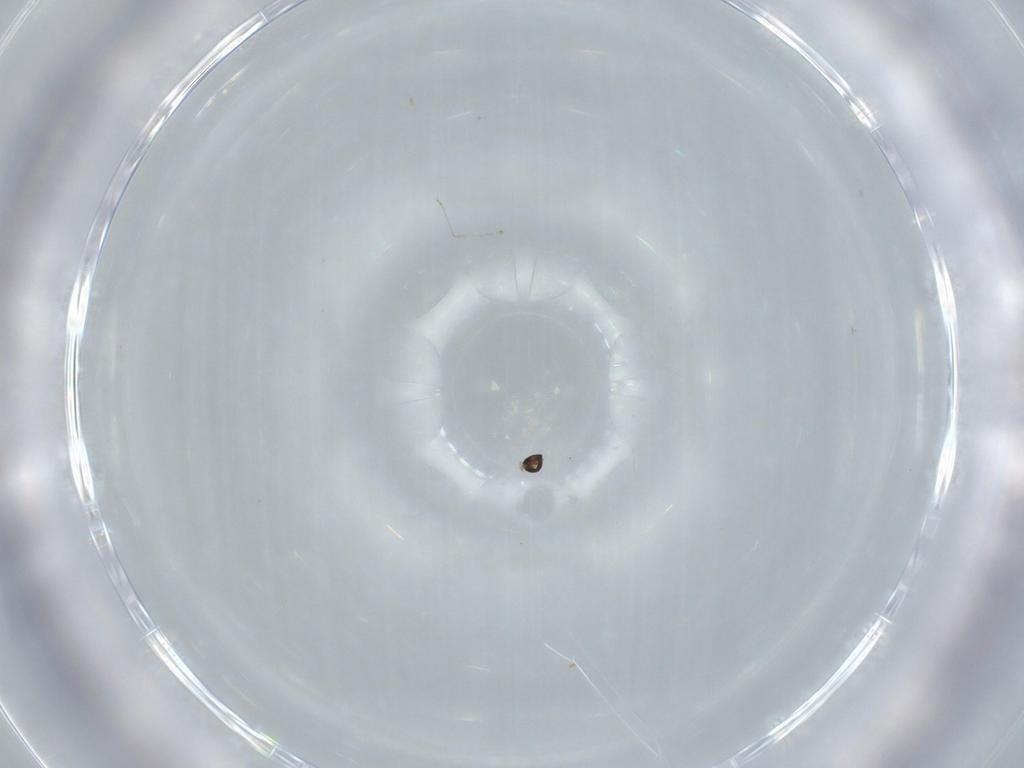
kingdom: Animalia
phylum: Arthropoda
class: Insecta
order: Diptera
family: Cecidomyiidae
